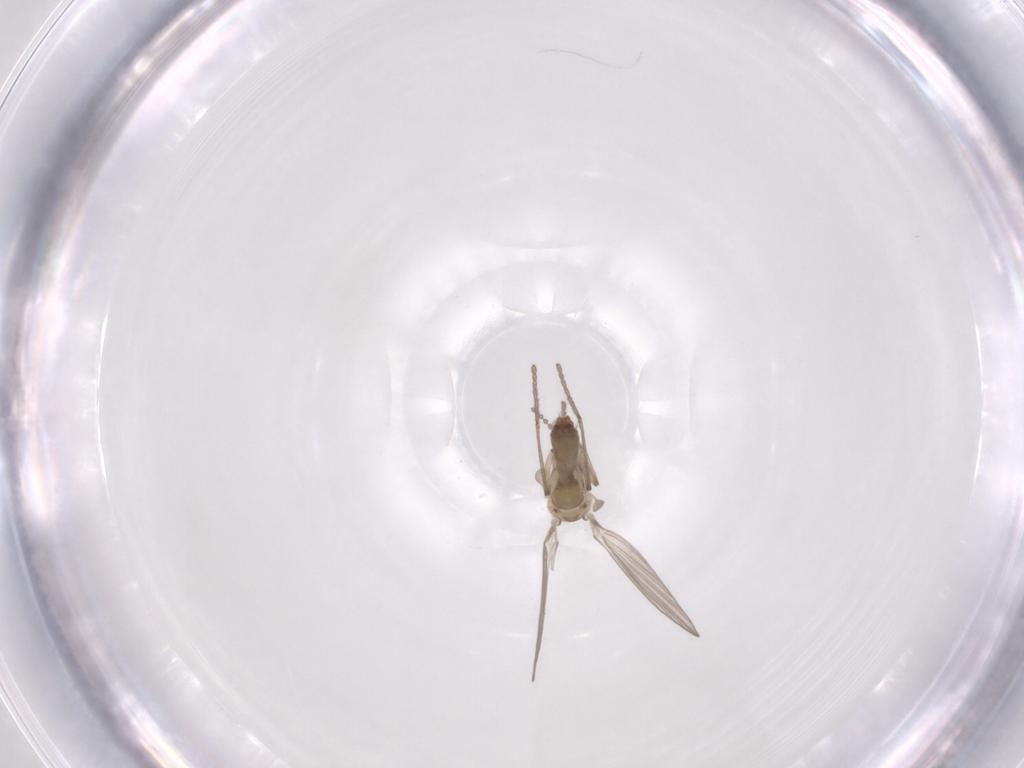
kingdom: Animalia
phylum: Arthropoda
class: Insecta
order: Diptera
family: Psychodidae
